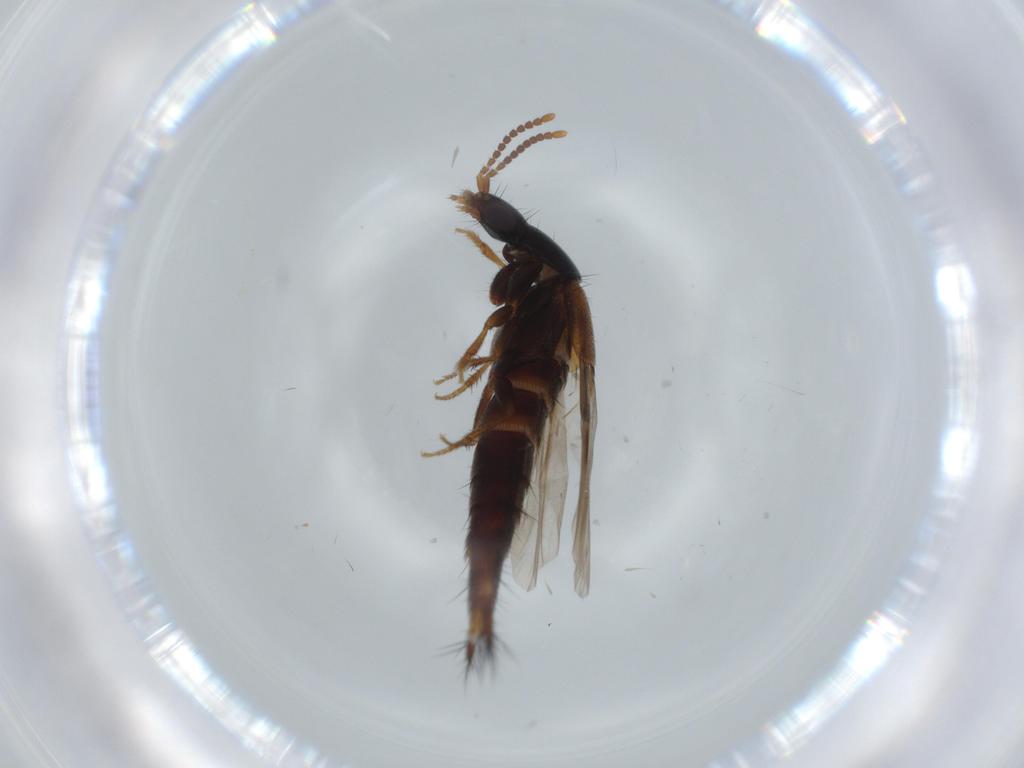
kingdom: Animalia
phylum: Arthropoda
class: Insecta
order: Coleoptera
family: Staphylinidae
